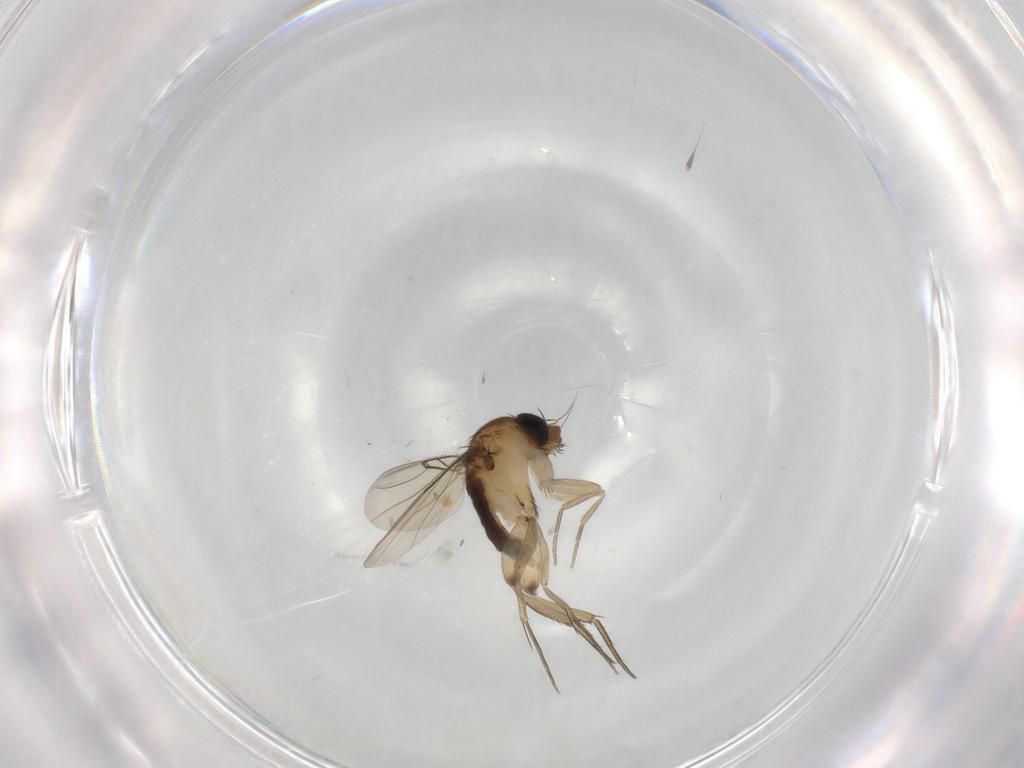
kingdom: Animalia
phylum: Arthropoda
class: Insecta
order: Diptera
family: Phoridae
